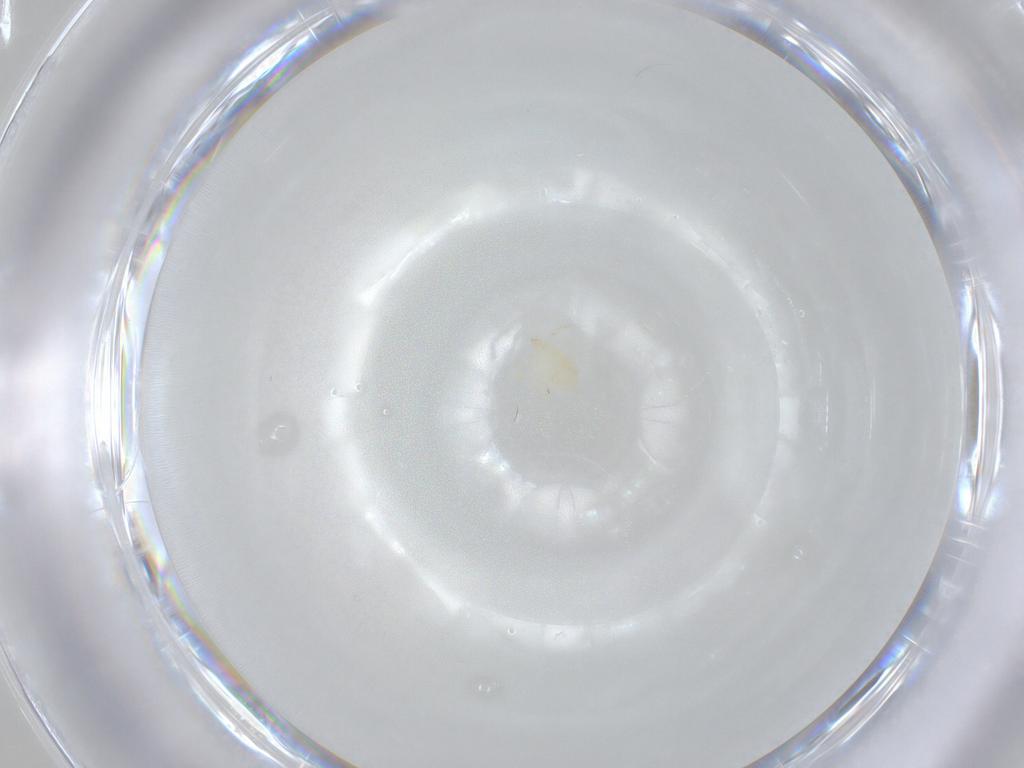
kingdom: Animalia
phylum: Arthropoda
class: Arachnida
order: Trombidiformes
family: Erythraeidae
